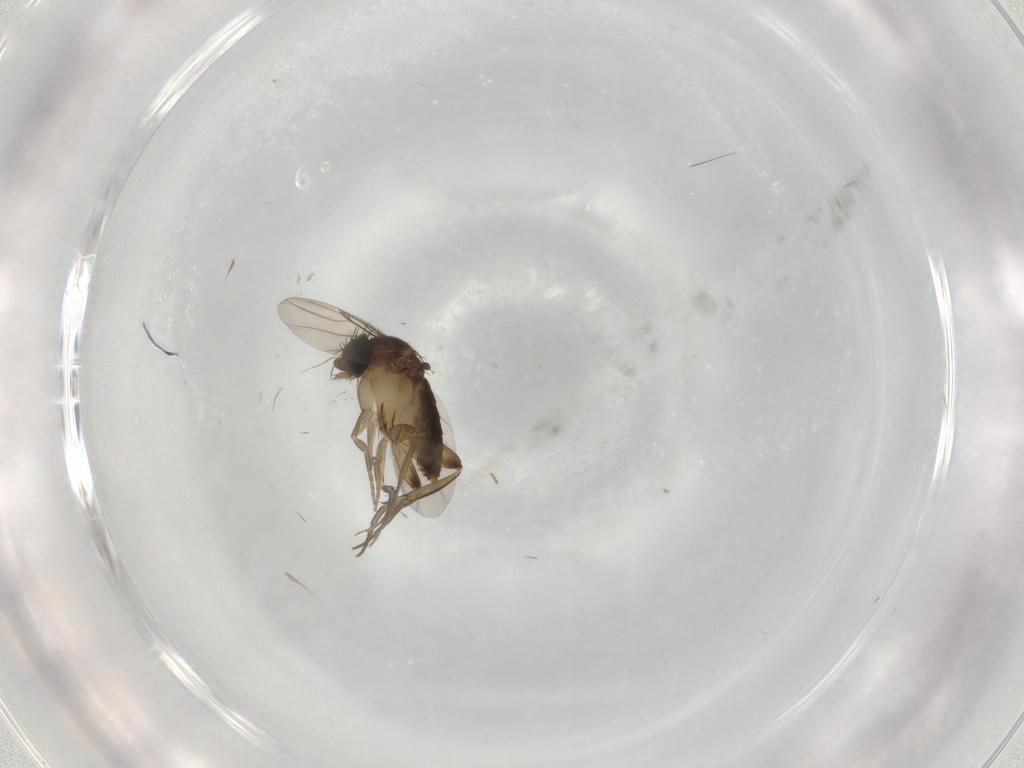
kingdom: Animalia
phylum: Arthropoda
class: Insecta
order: Diptera
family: Phoridae
